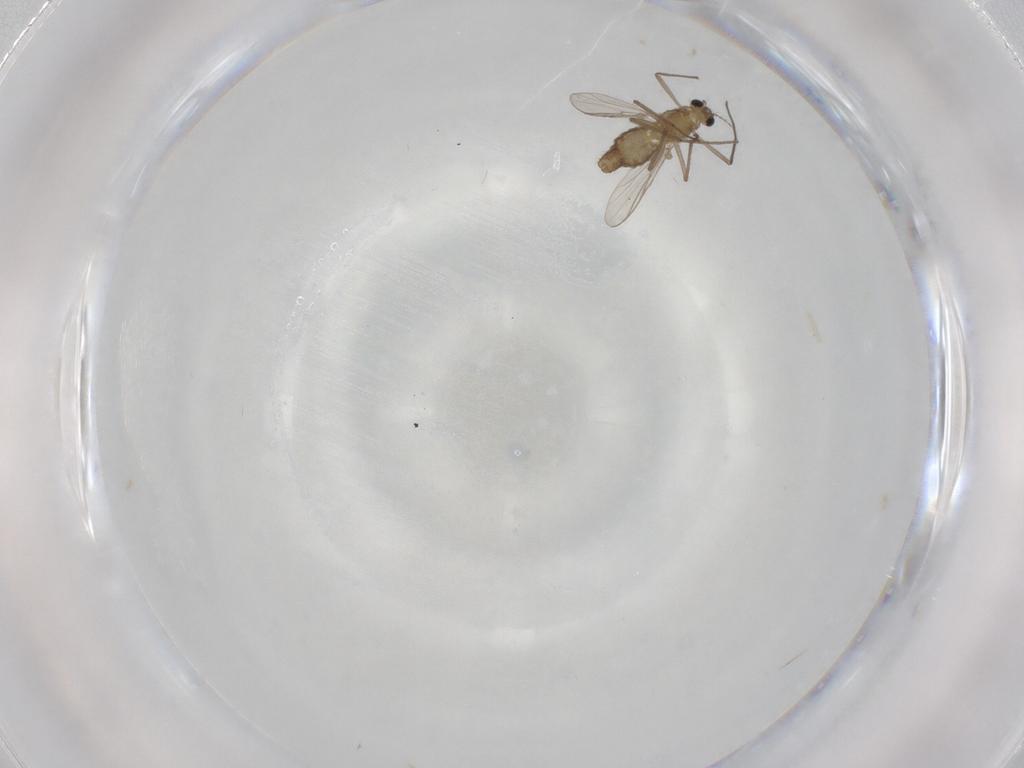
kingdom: Animalia
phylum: Arthropoda
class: Insecta
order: Diptera
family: Chironomidae
